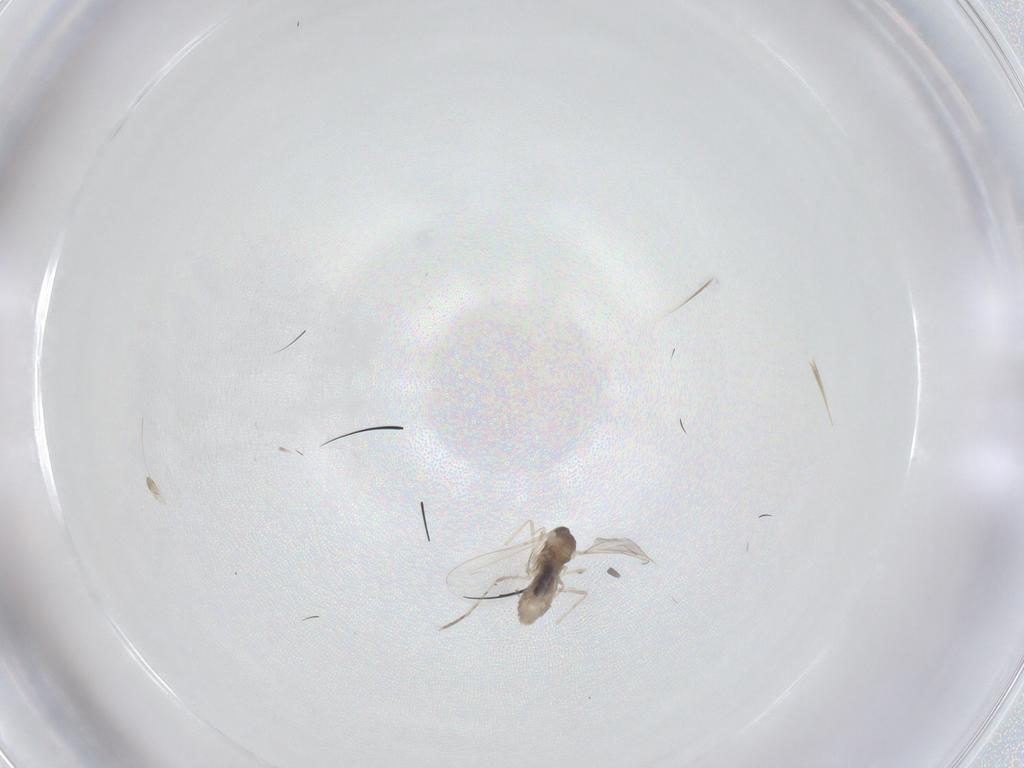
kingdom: Animalia
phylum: Arthropoda
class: Insecta
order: Diptera
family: Cecidomyiidae
